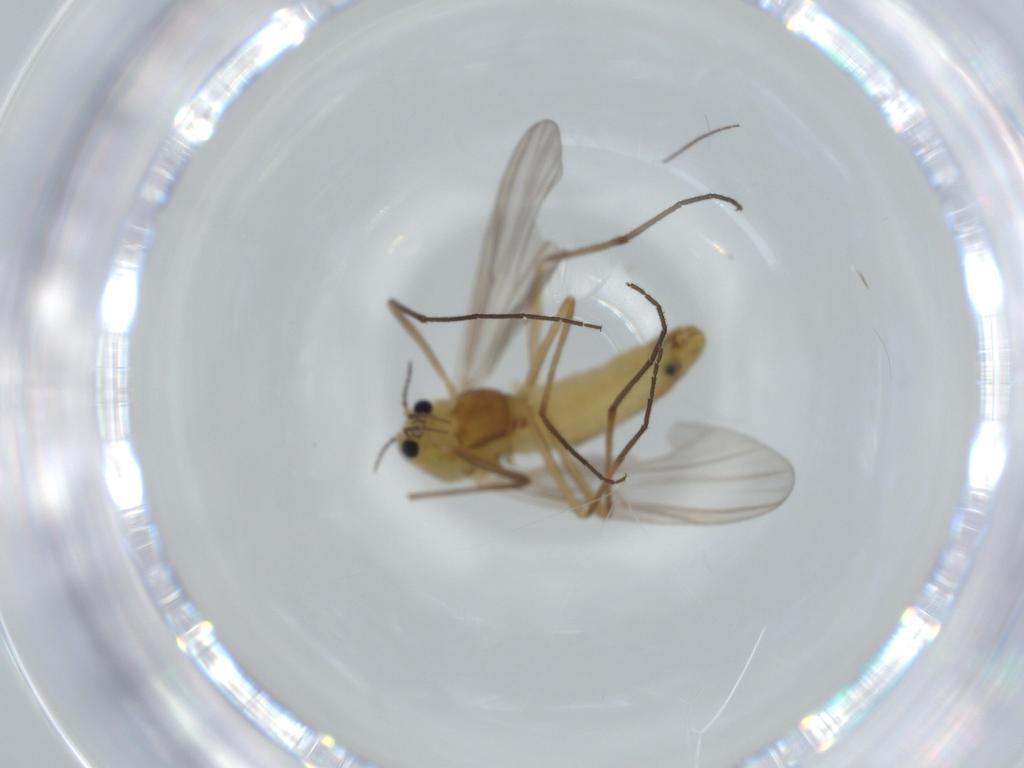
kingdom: Animalia
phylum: Arthropoda
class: Insecta
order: Diptera
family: Chironomidae
